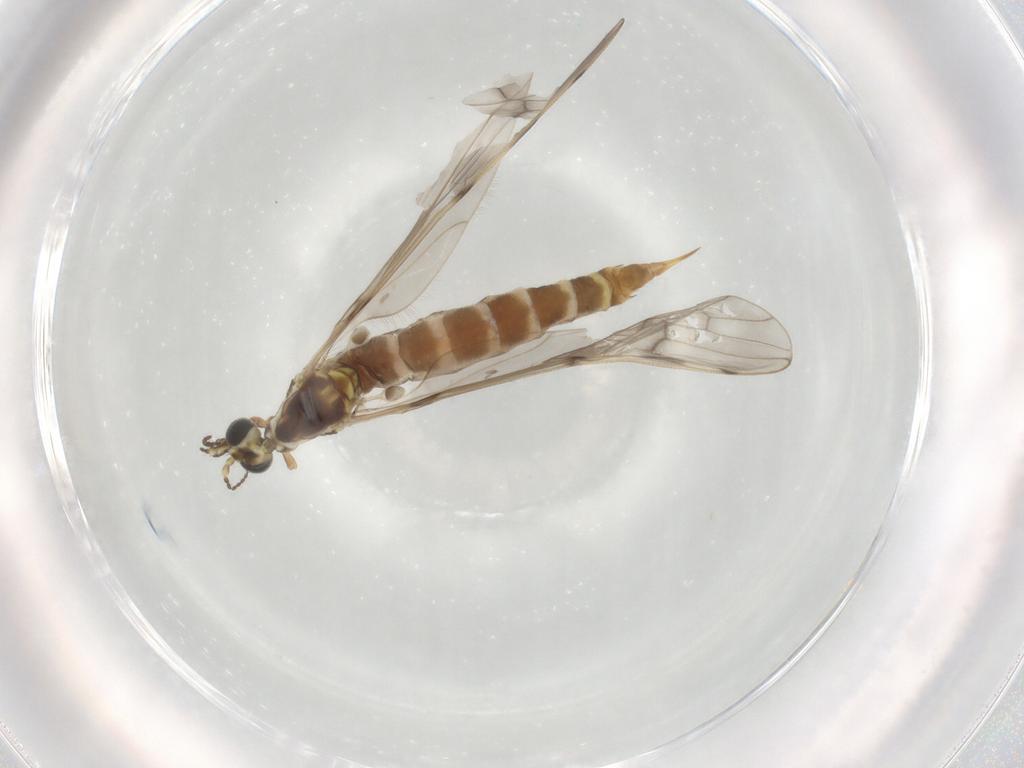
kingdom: Animalia
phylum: Arthropoda
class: Insecta
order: Diptera
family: Limoniidae
